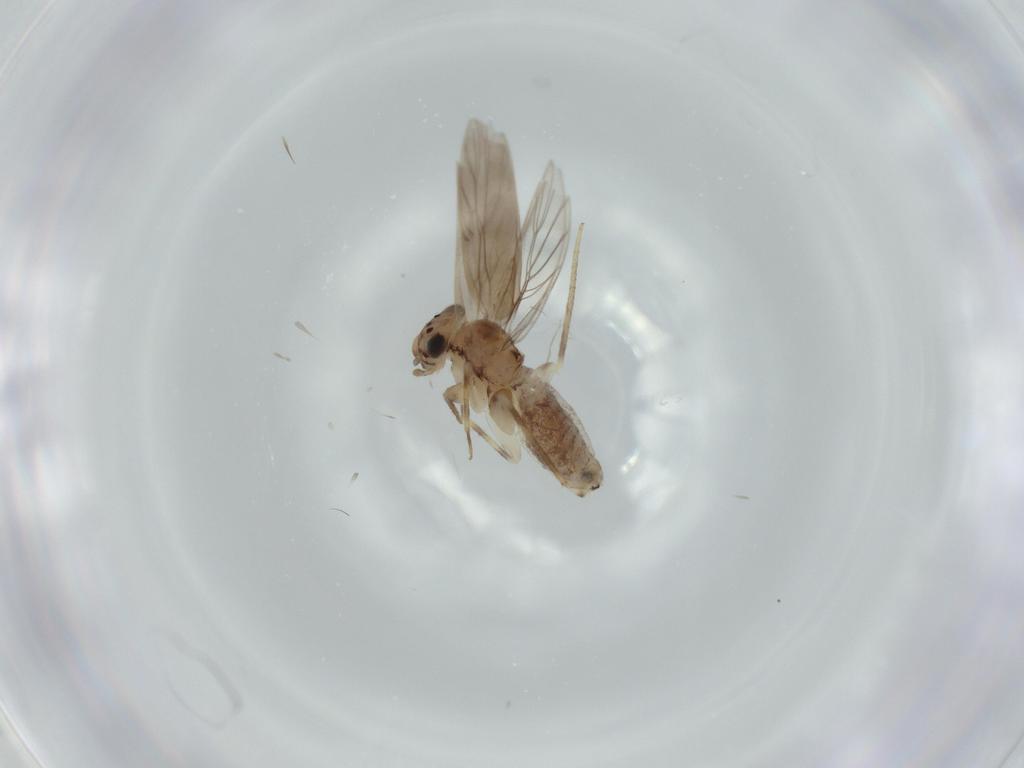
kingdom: Animalia
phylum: Arthropoda
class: Insecta
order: Psocodea
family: Lepidopsocidae
